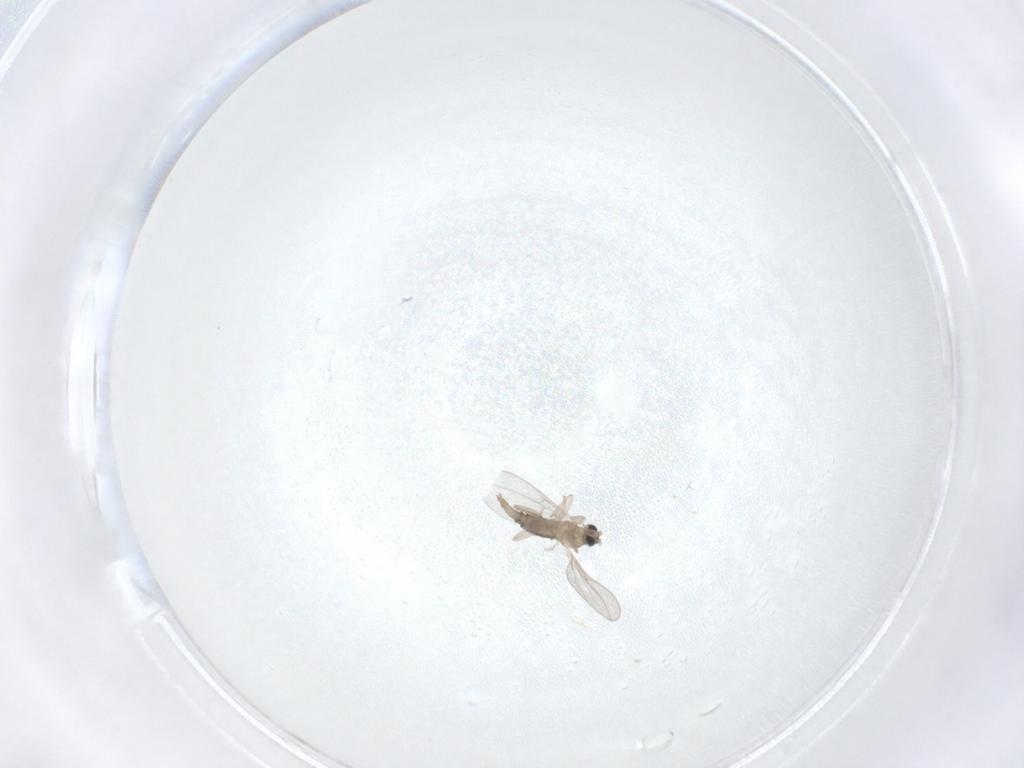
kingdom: Animalia
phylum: Arthropoda
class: Insecta
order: Diptera
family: Cecidomyiidae
